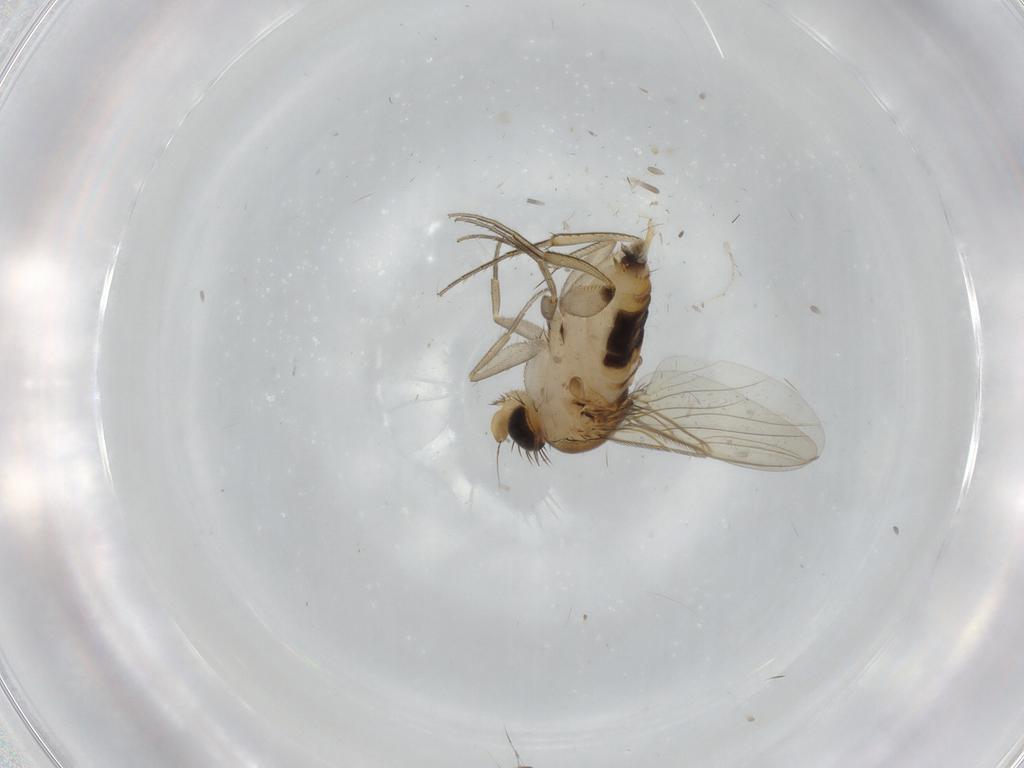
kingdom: Animalia
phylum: Arthropoda
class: Insecta
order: Diptera
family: Phoridae
